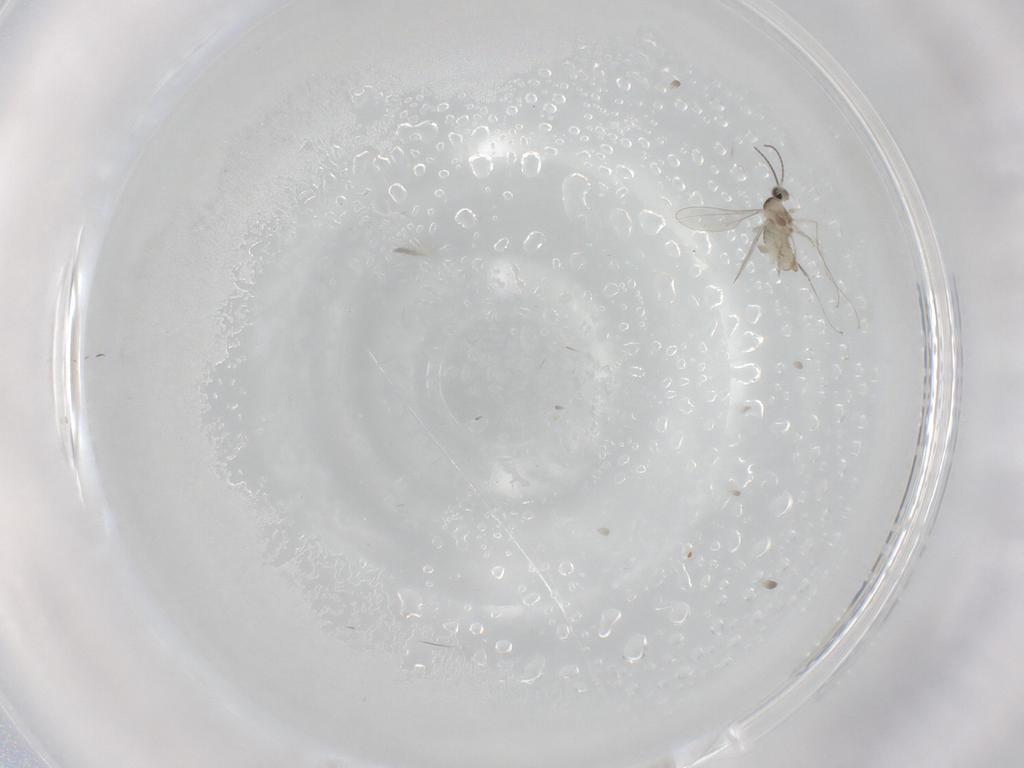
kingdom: Animalia
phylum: Arthropoda
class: Insecta
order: Diptera
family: Cecidomyiidae
